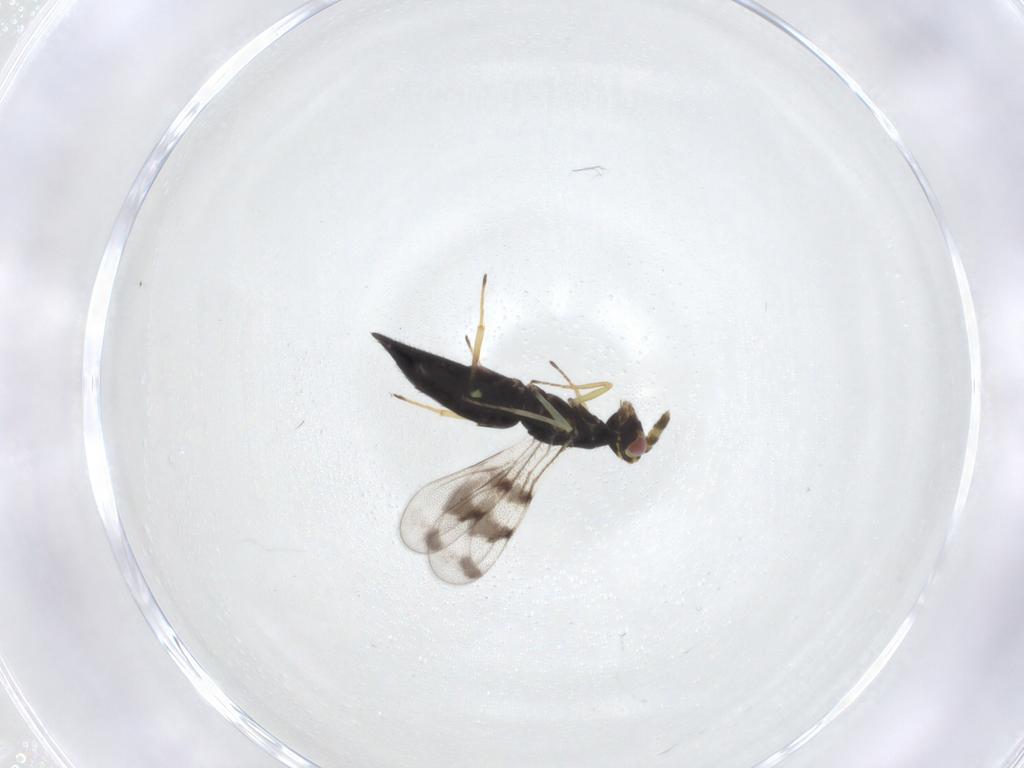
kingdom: Animalia
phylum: Arthropoda
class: Insecta
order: Hymenoptera
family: Eulophidae
